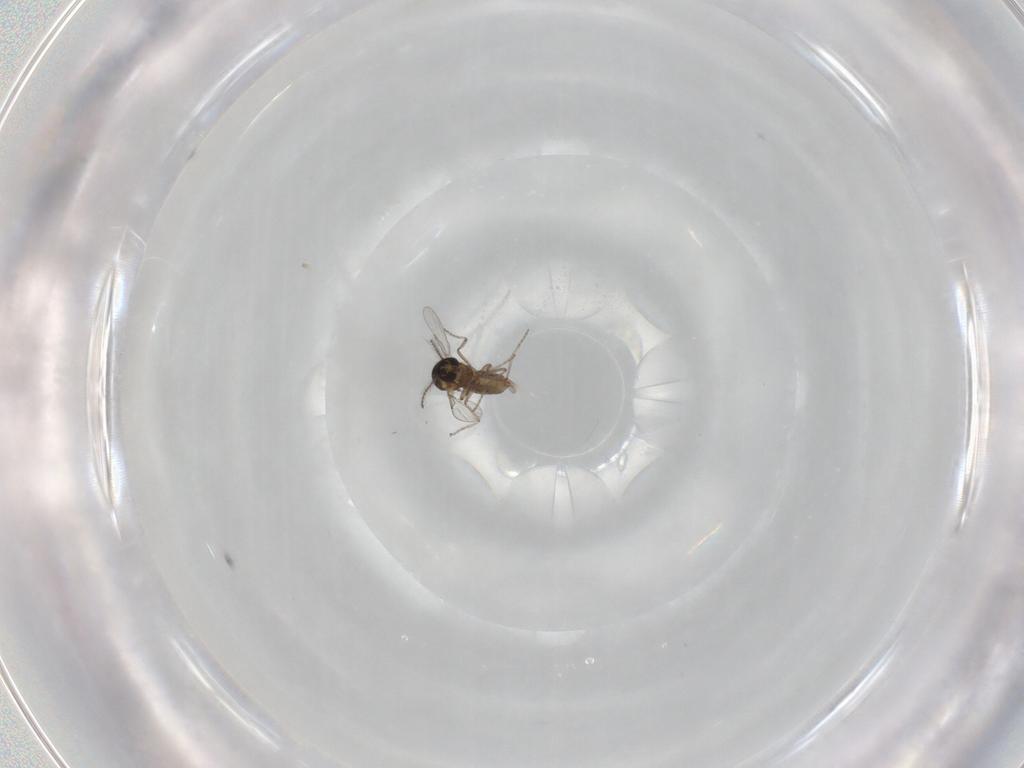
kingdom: Animalia
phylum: Arthropoda
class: Insecta
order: Diptera
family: Ceratopogonidae
